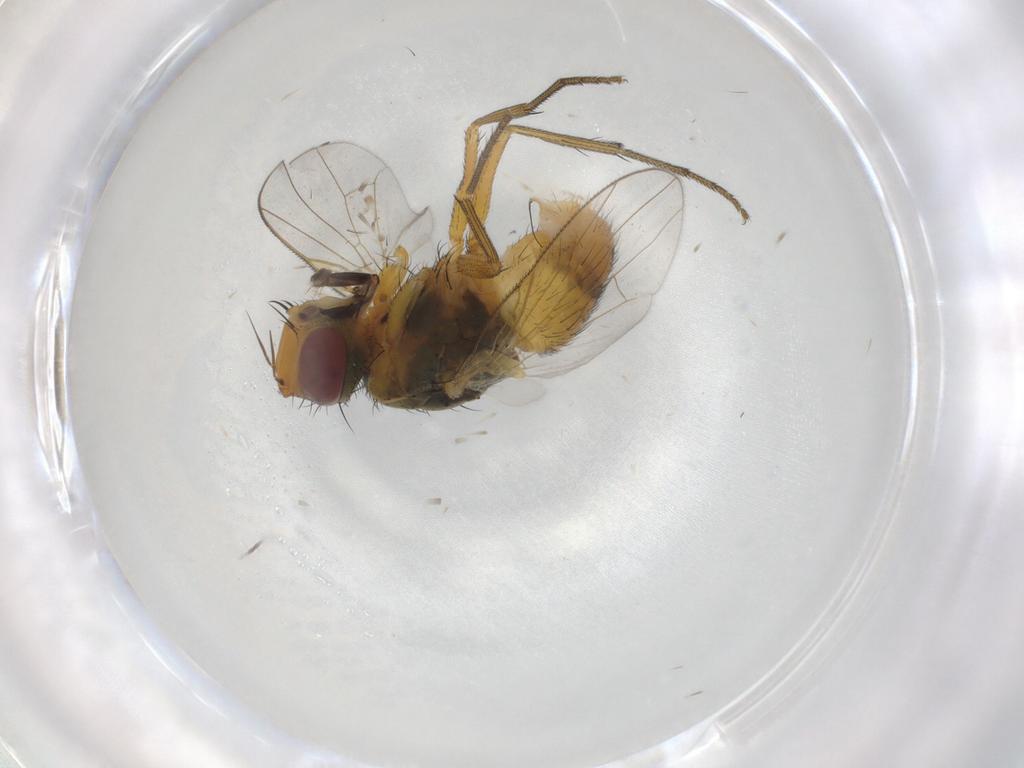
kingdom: Animalia
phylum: Arthropoda
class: Insecta
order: Diptera
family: Muscidae
